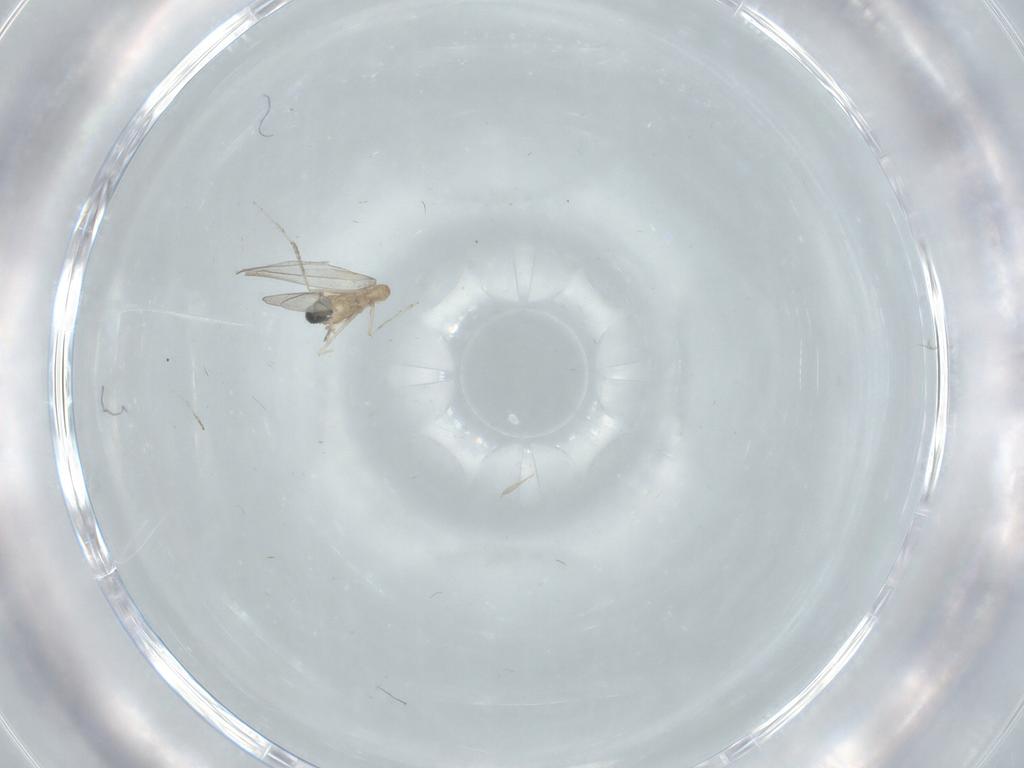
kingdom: Animalia
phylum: Arthropoda
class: Insecta
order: Diptera
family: Cecidomyiidae
